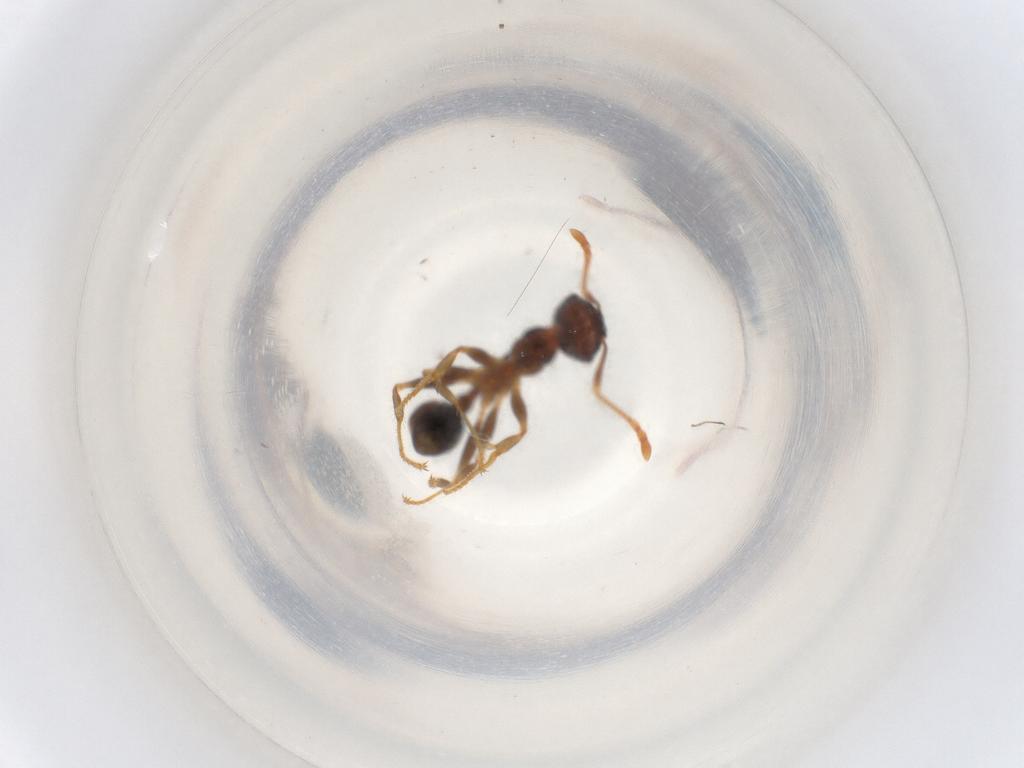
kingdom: Animalia
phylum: Arthropoda
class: Insecta
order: Hymenoptera
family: Formicidae
